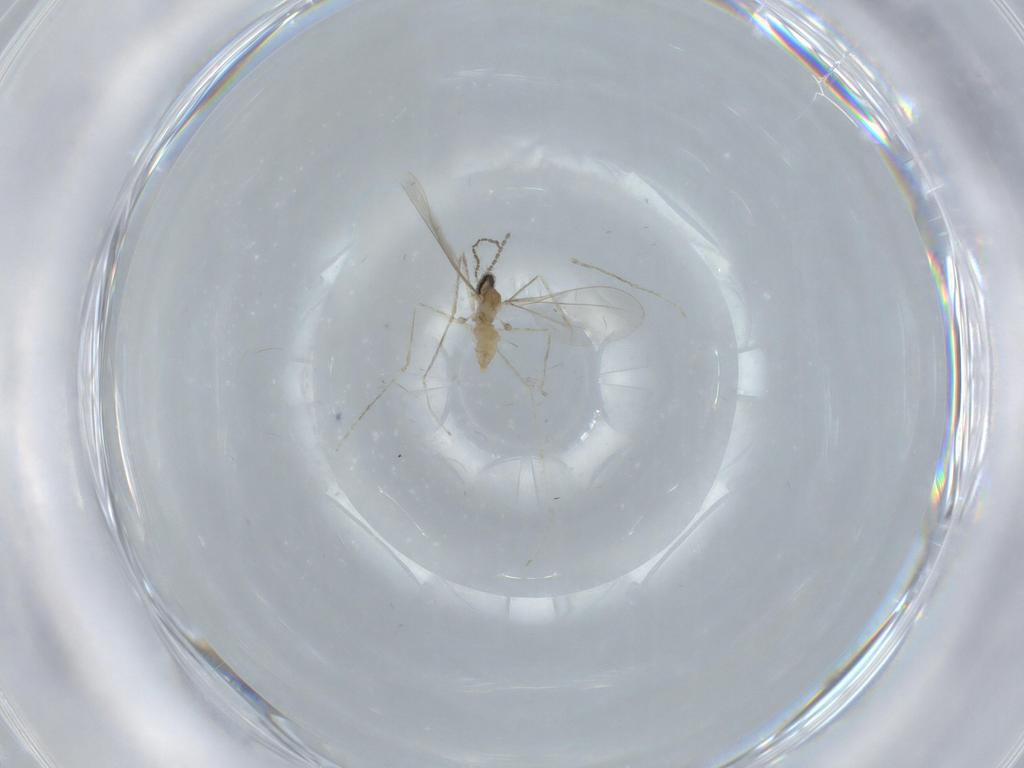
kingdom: Animalia
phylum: Arthropoda
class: Insecta
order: Diptera
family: Cecidomyiidae
